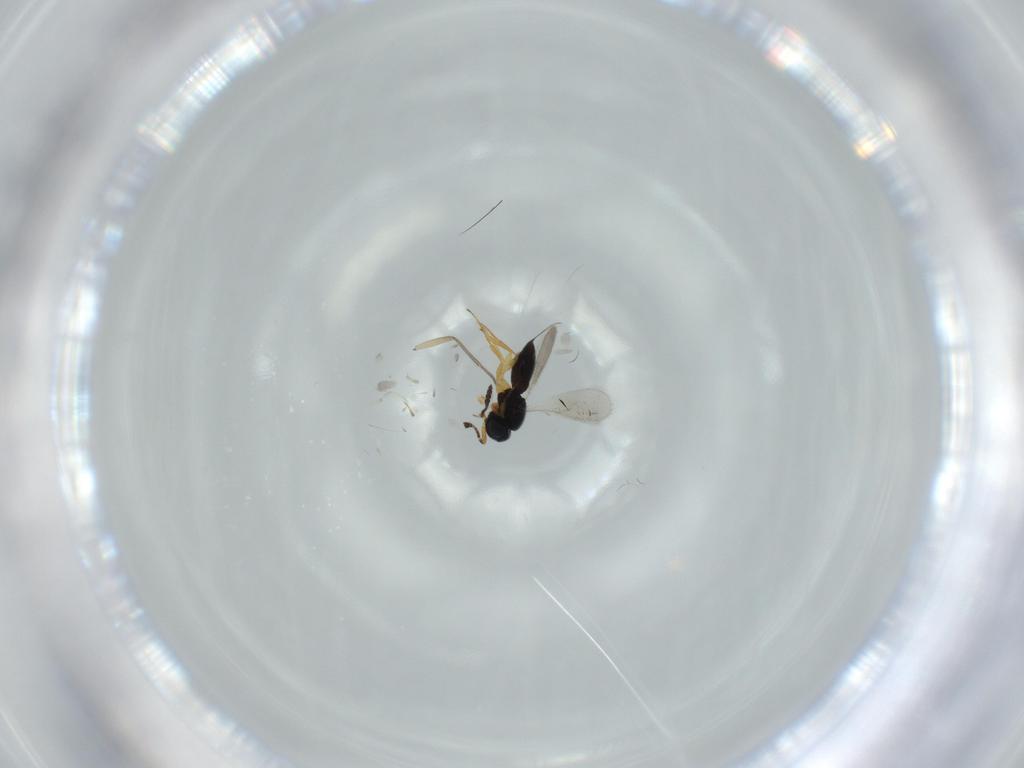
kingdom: Animalia
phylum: Arthropoda
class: Insecta
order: Hymenoptera
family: Scelionidae
